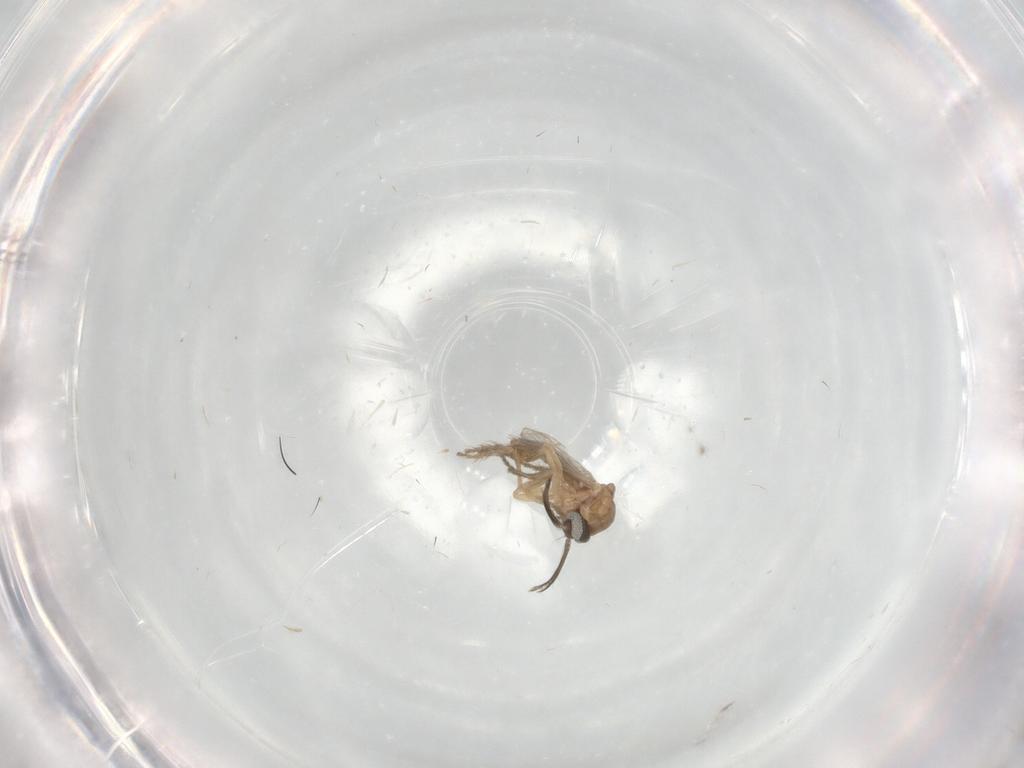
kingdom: Animalia
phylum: Arthropoda
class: Insecta
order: Diptera
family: Ceratopogonidae
